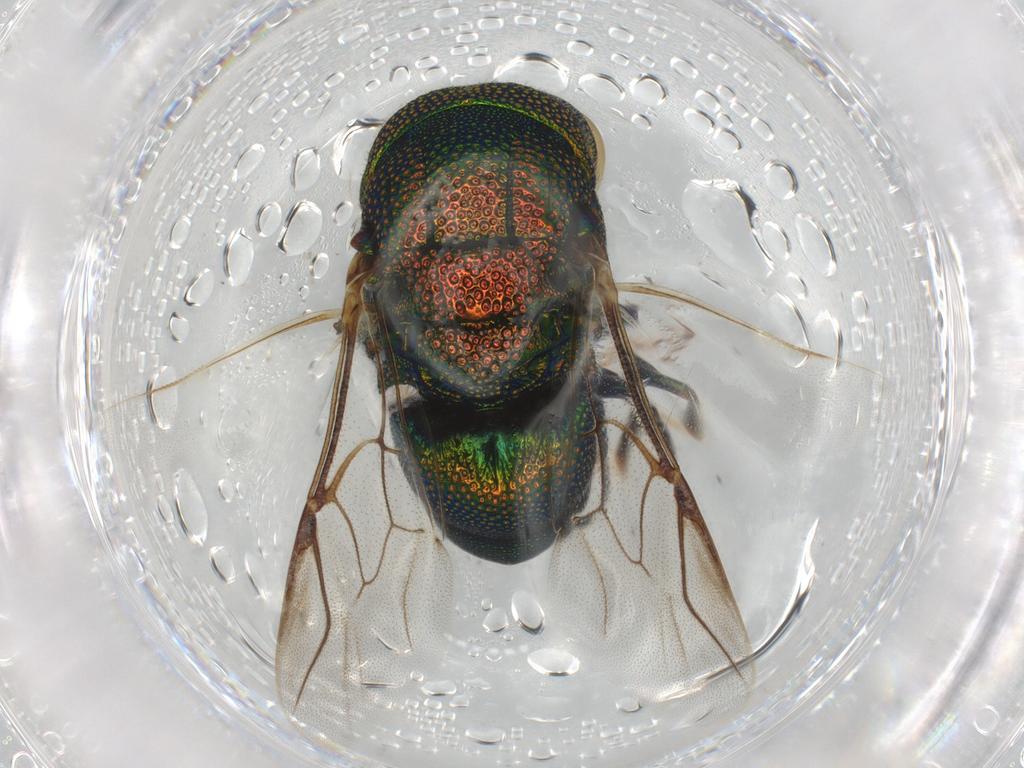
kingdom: Animalia
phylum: Arthropoda
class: Insecta
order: Hymenoptera
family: Chrysididae
